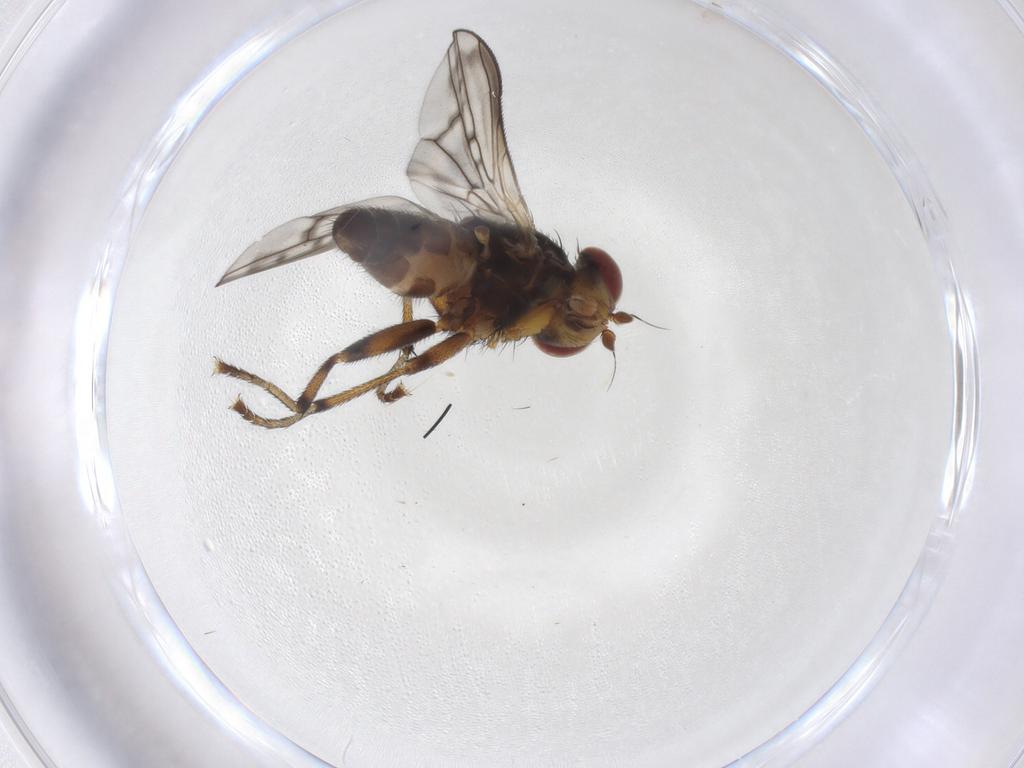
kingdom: Animalia
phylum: Arthropoda
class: Insecta
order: Diptera
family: Sciomyzidae
